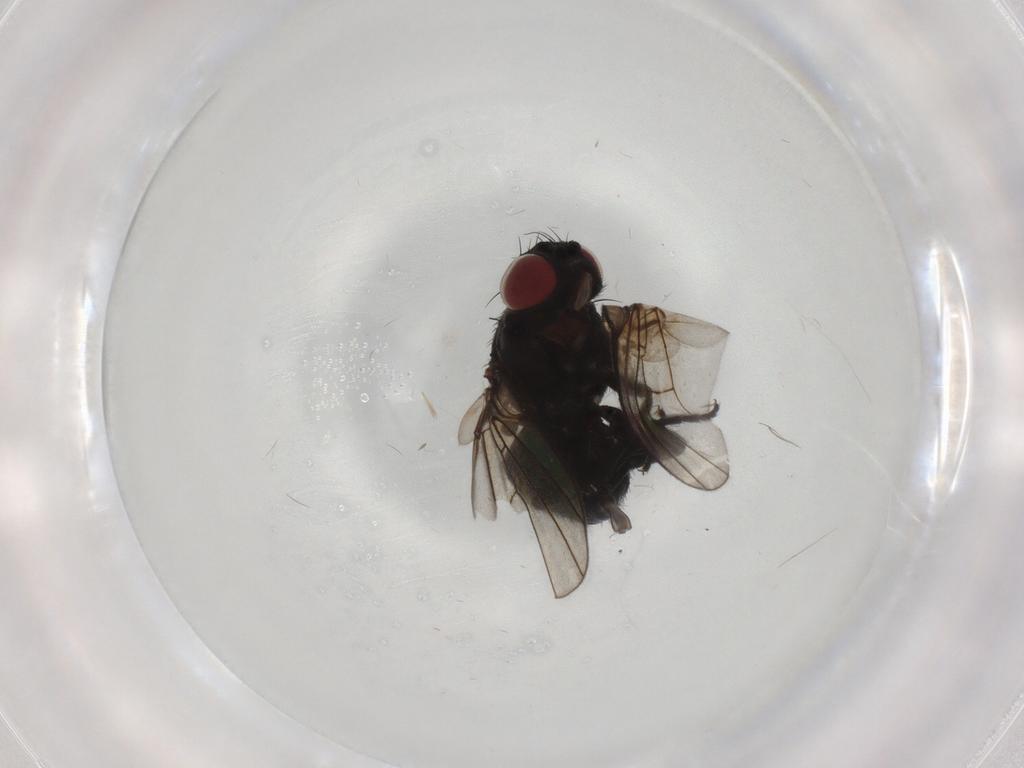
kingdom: Animalia
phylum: Arthropoda
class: Insecta
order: Diptera
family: Agromyzidae
